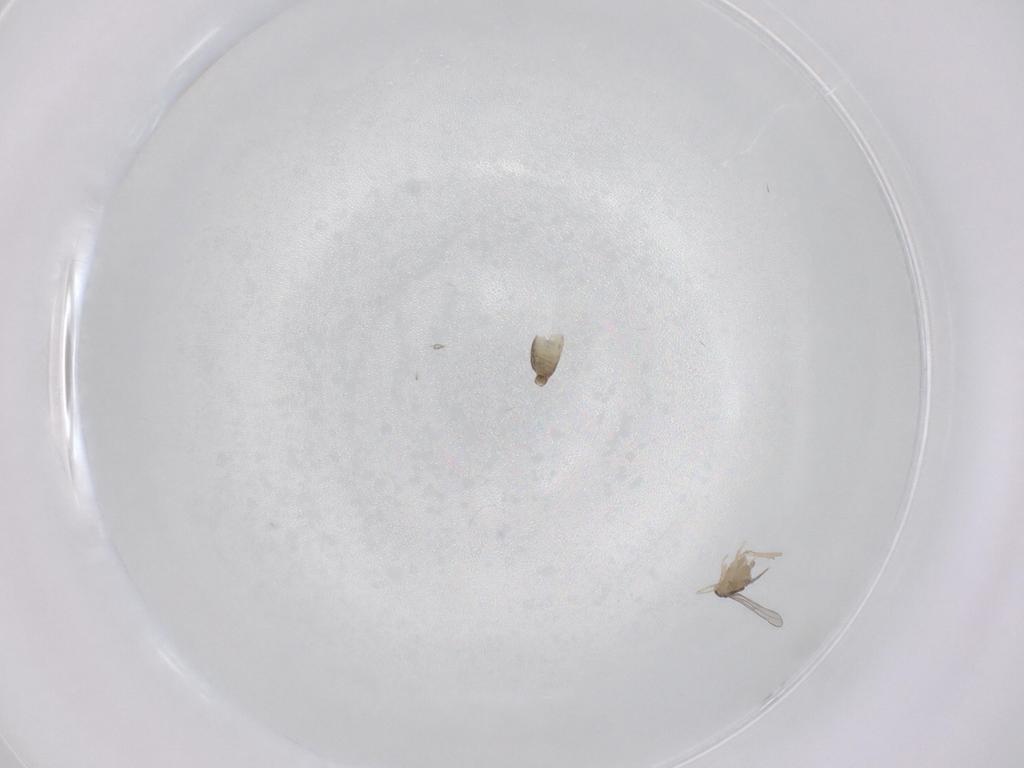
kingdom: Animalia
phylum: Arthropoda
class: Insecta
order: Diptera
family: Cecidomyiidae
